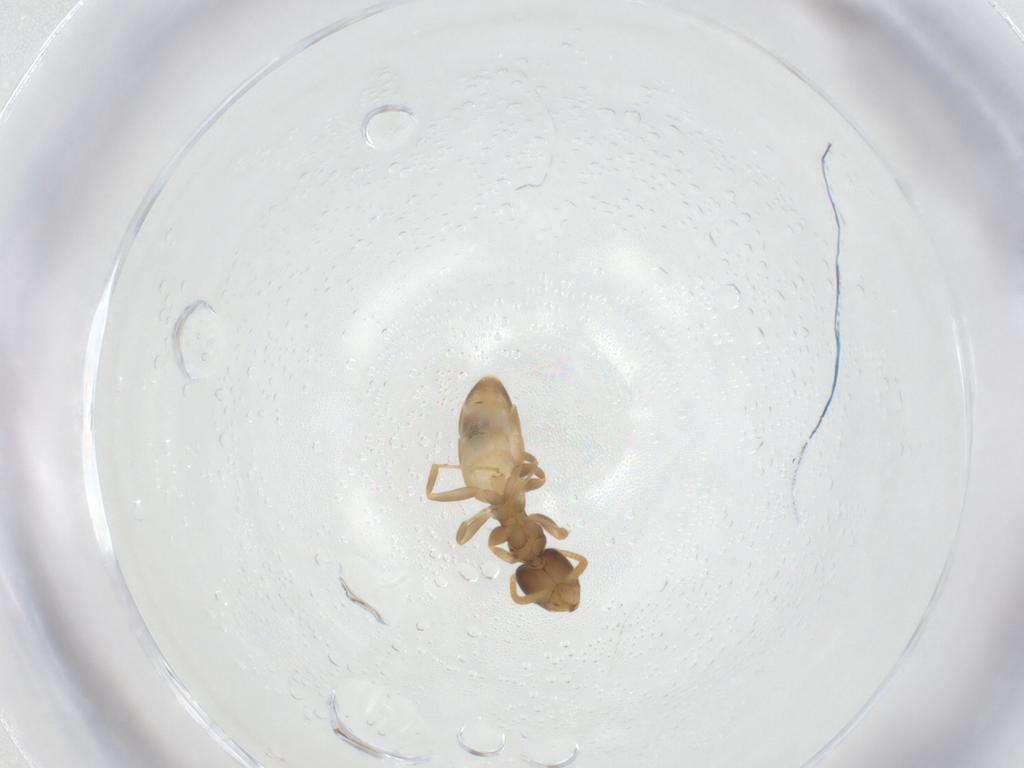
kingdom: Animalia
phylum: Arthropoda
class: Insecta
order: Hymenoptera
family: Formicidae
